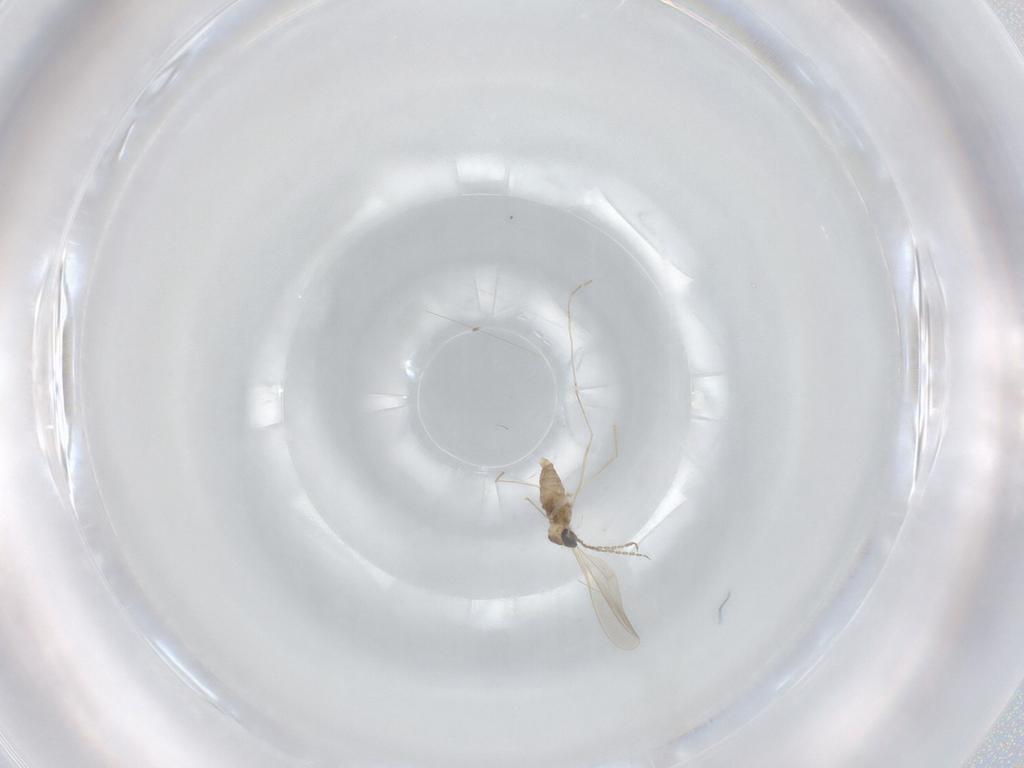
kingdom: Animalia
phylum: Arthropoda
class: Insecta
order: Diptera
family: Cecidomyiidae
